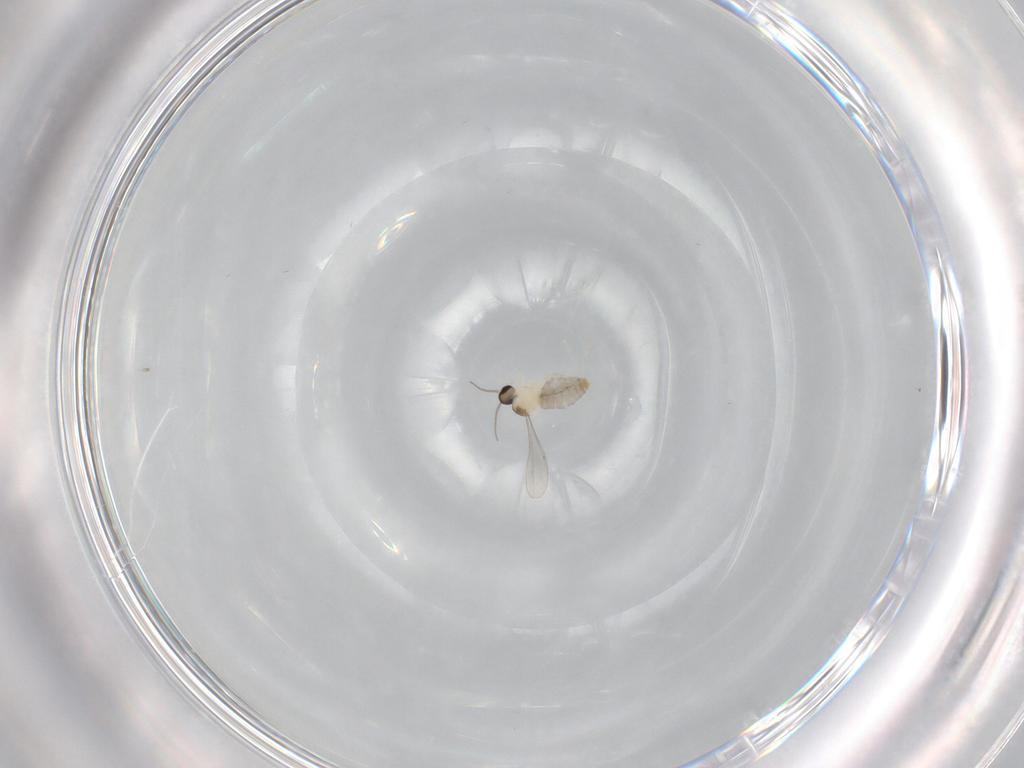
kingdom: Animalia
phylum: Arthropoda
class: Insecta
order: Diptera
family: Cecidomyiidae
